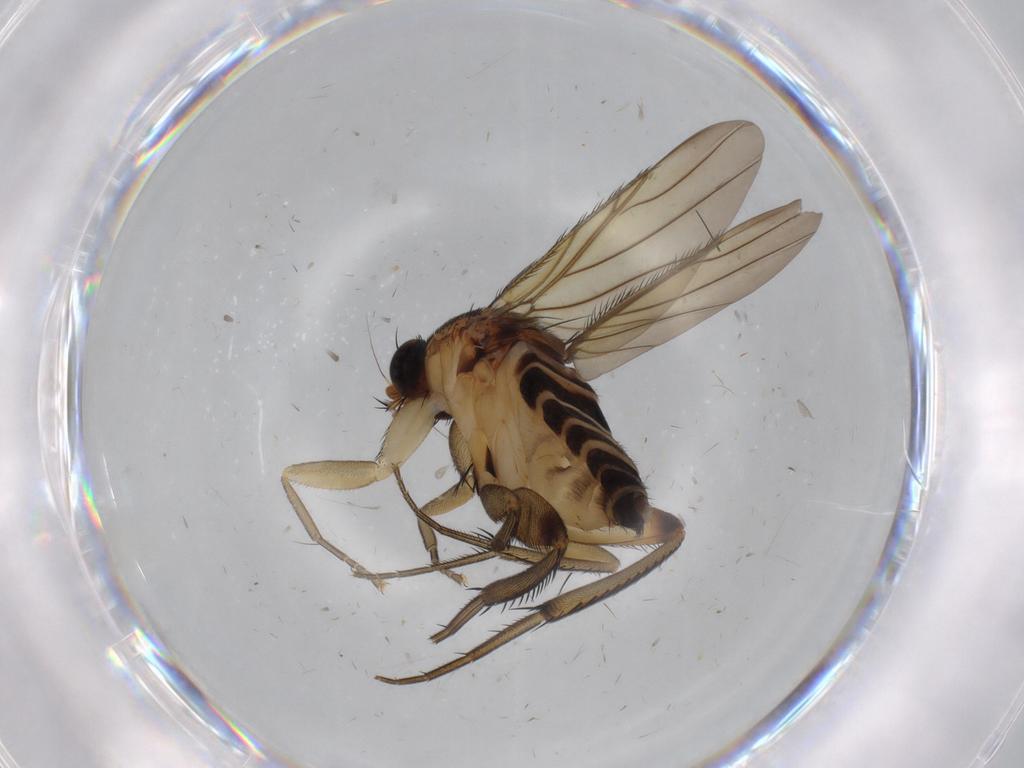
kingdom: Animalia
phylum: Arthropoda
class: Insecta
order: Diptera
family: Phoridae
